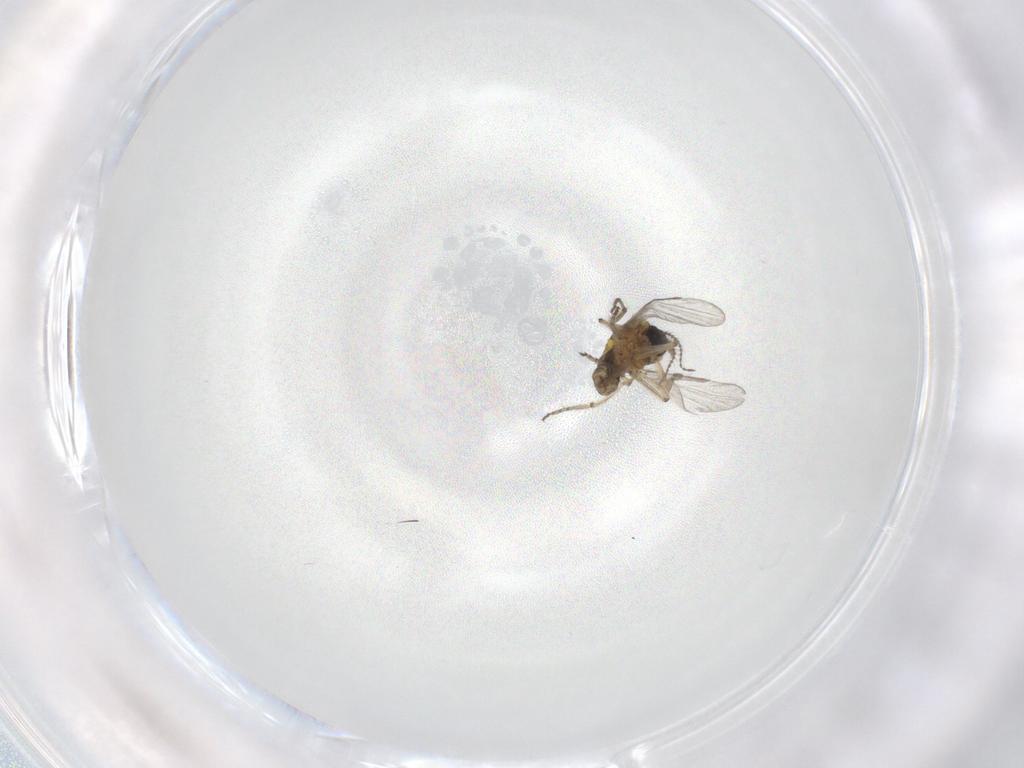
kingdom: Animalia
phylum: Arthropoda
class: Insecta
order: Diptera
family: Ceratopogonidae
